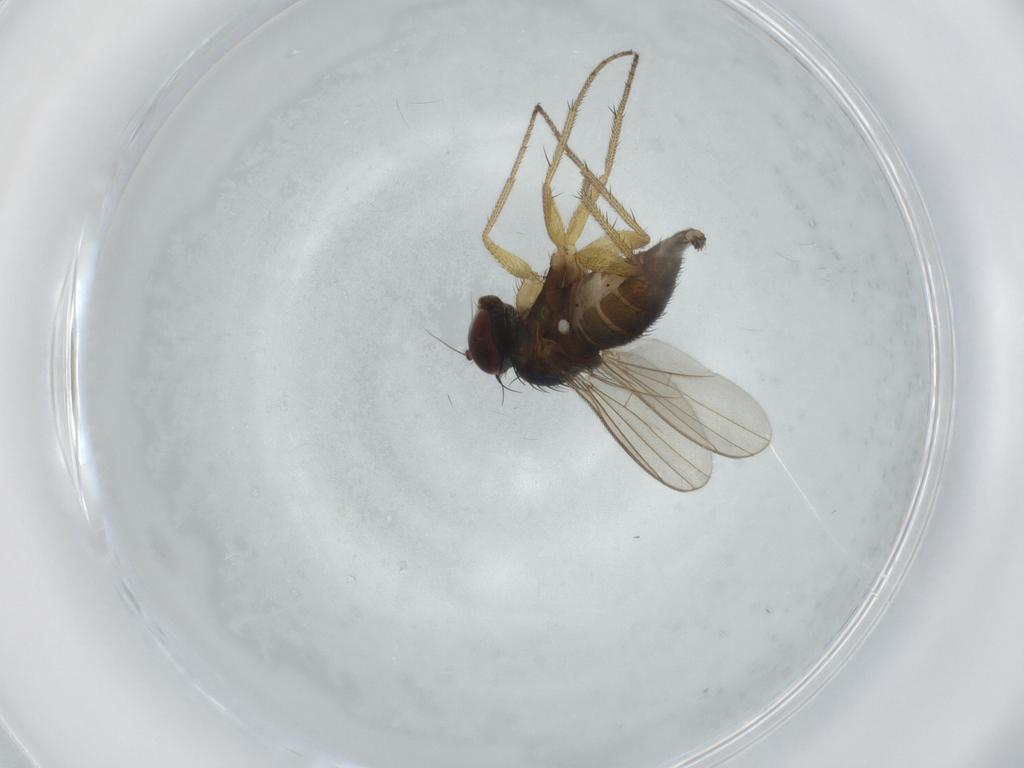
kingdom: Animalia
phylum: Arthropoda
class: Insecta
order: Diptera
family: Dolichopodidae
